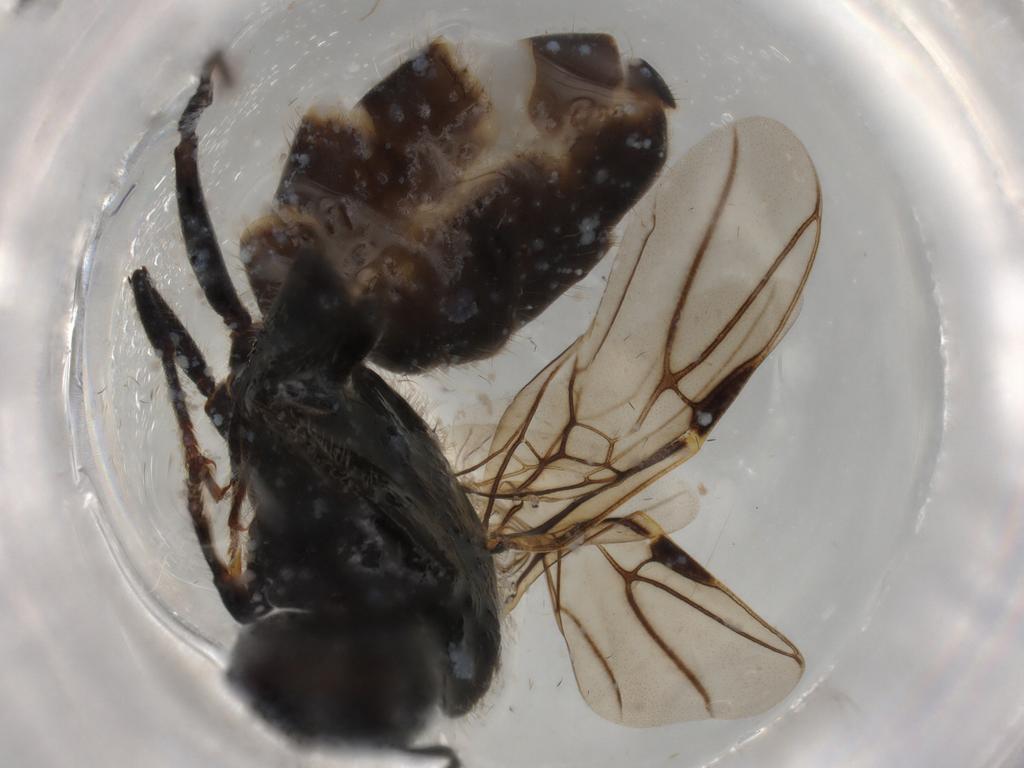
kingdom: Animalia
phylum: Arthropoda
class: Insecta
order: Hymenoptera
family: Formicidae
